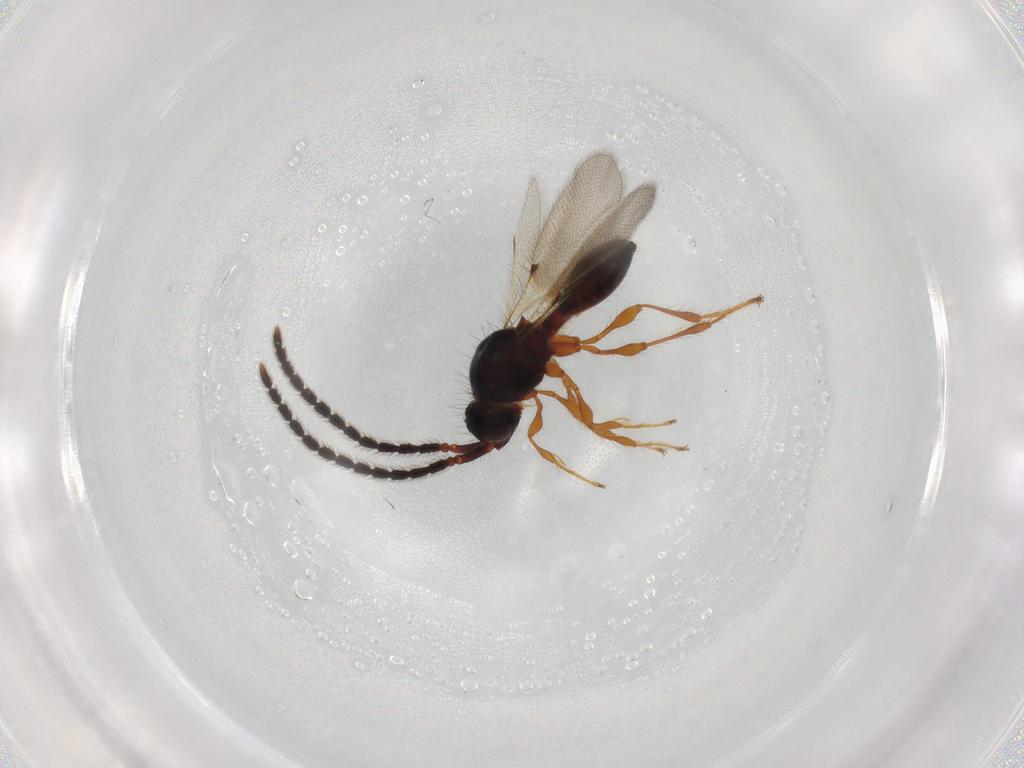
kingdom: Animalia
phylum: Arthropoda
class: Insecta
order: Hymenoptera
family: Diapriidae
